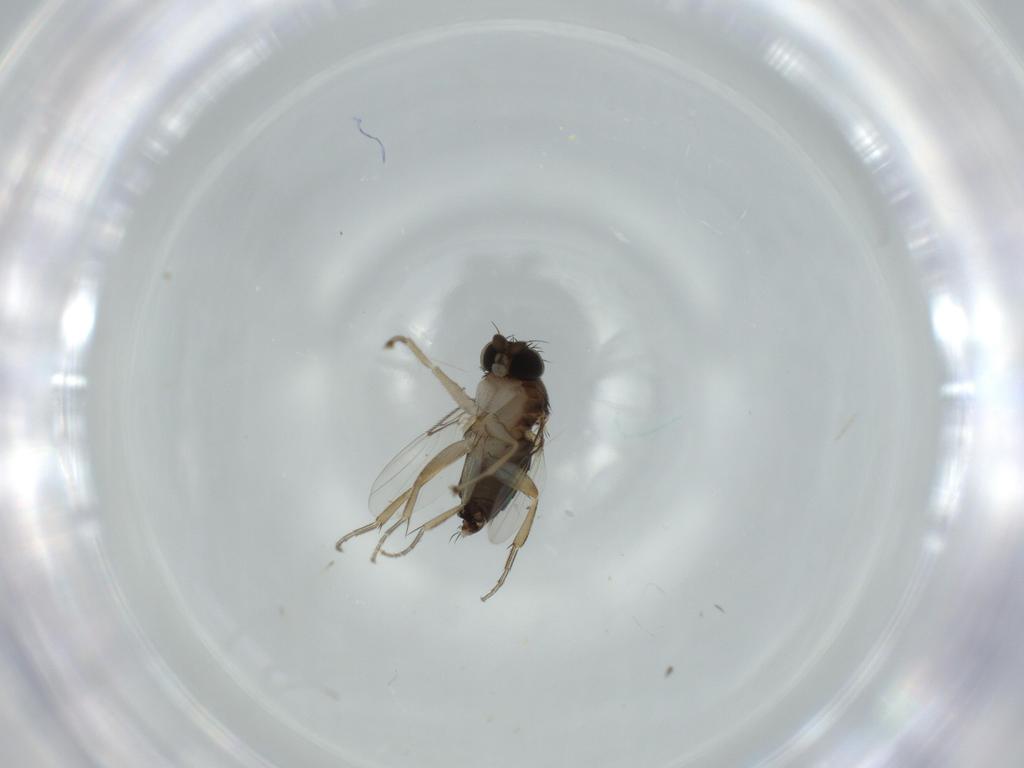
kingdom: Animalia
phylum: Arthropoda
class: Insecta
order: Diptera
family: Phoridae
